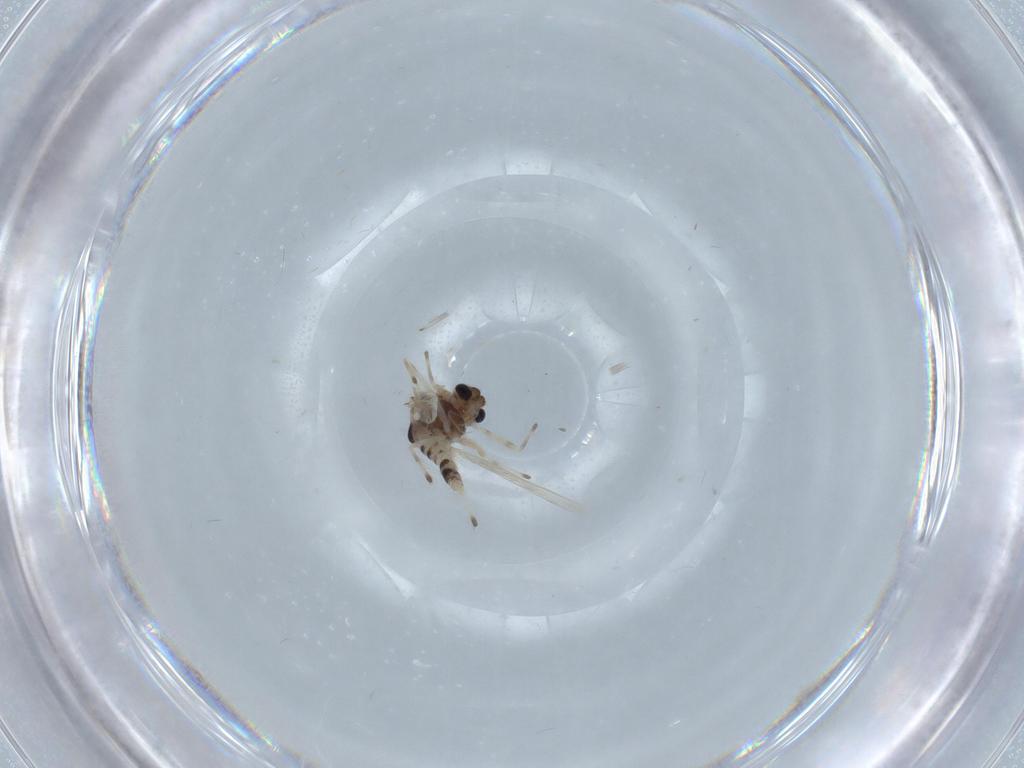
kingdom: Animalia
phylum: Arthropoda
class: Insecta
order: Diptera
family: Chironomidae
